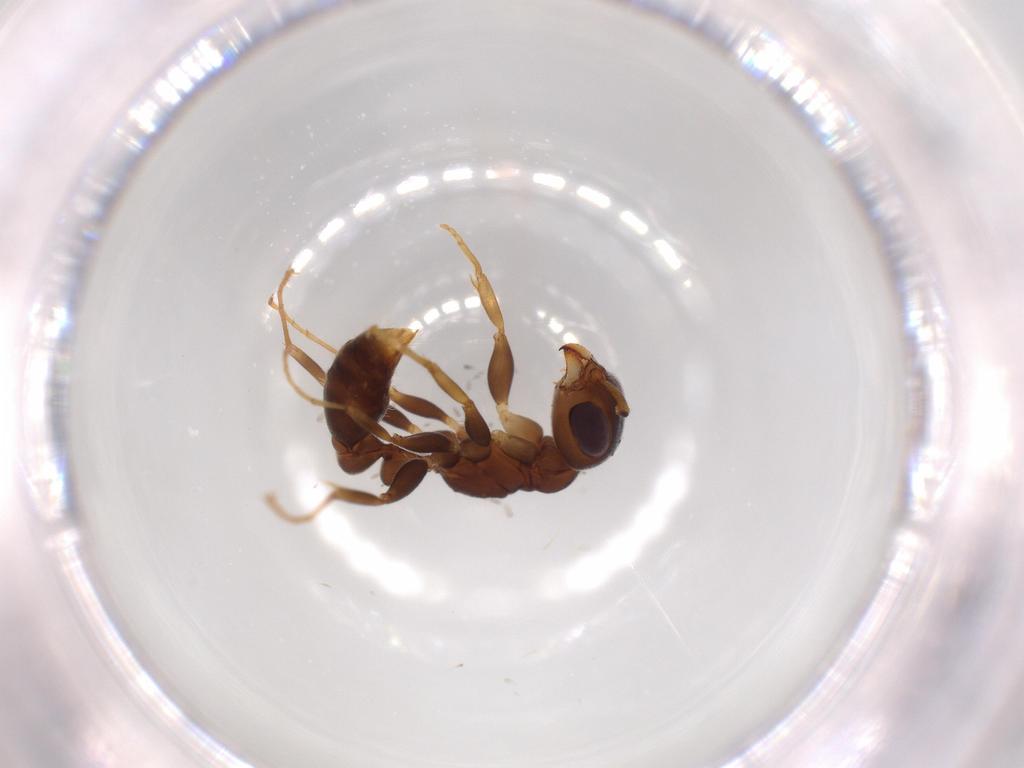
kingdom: Animalia
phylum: Arthropoda
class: Insecta
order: Hymenoptera
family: Formicidae
